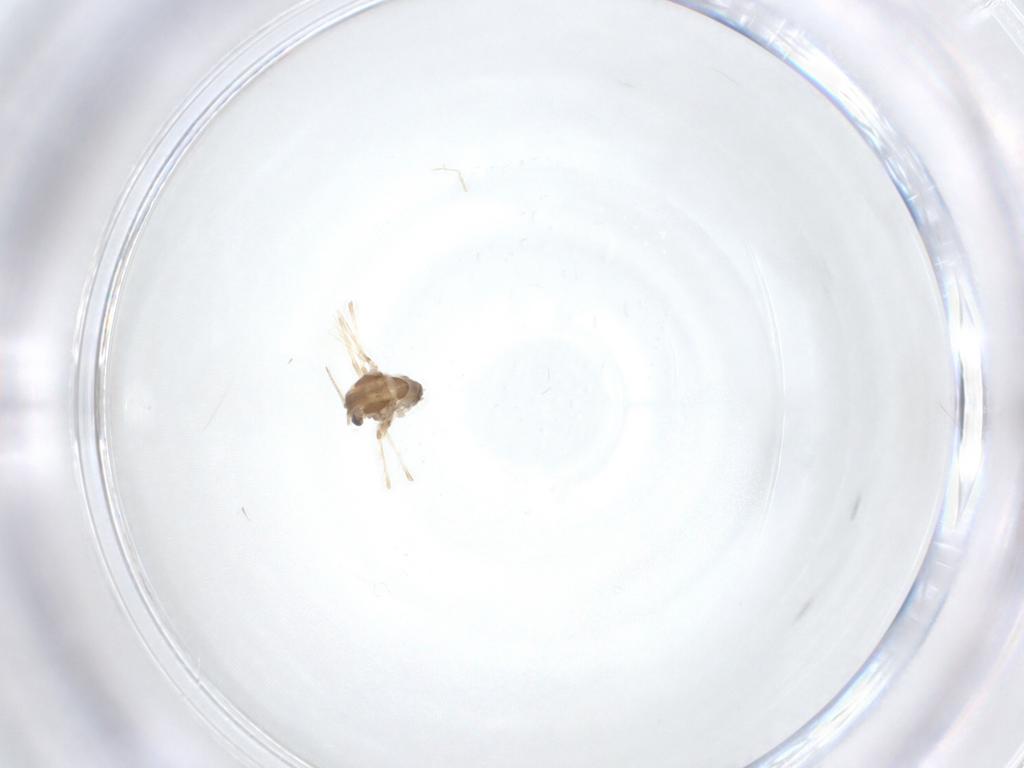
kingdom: Animalia
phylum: Arthropoda
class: Insecta
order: Diptera
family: Chironomidae
